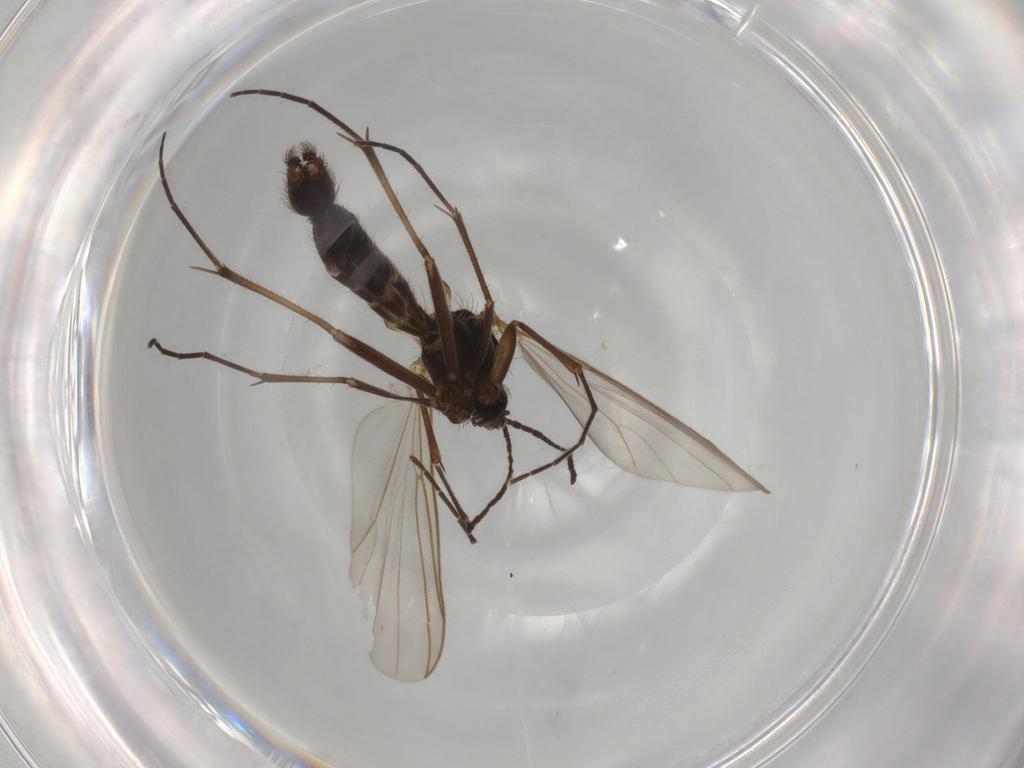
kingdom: Animalia
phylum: Arthropoda
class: Insecta
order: Diptera
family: Mycetophilidae
